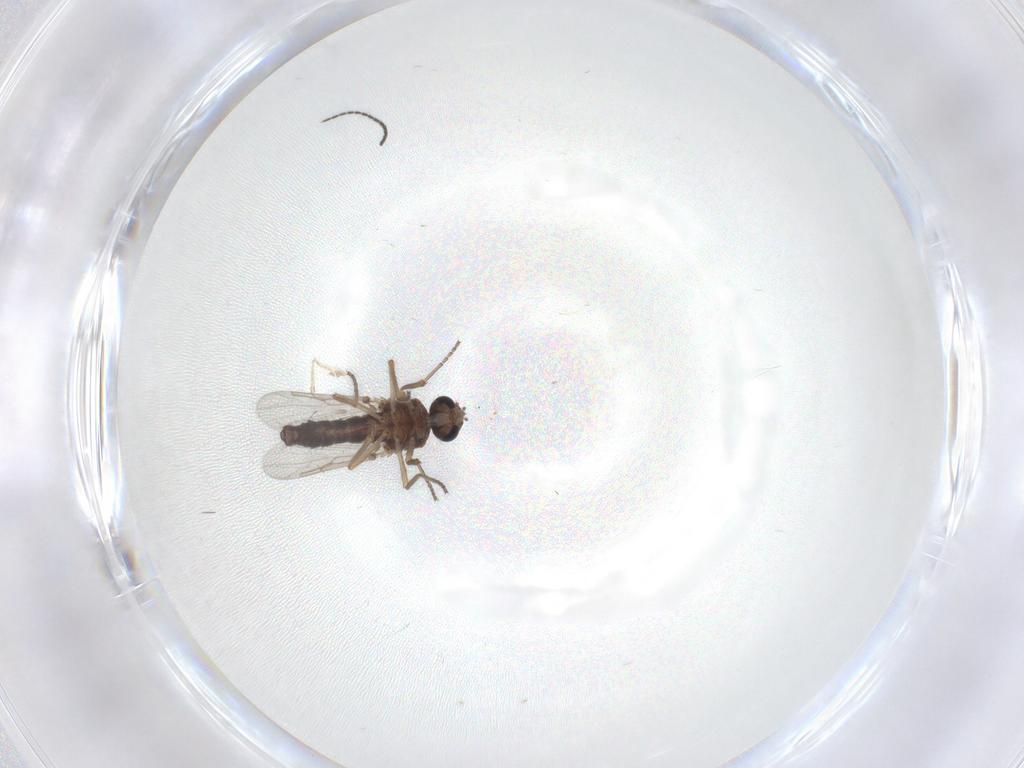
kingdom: Animalia
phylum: Arthropoda
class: Insecta
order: Diptera
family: Ceratopogonidae
